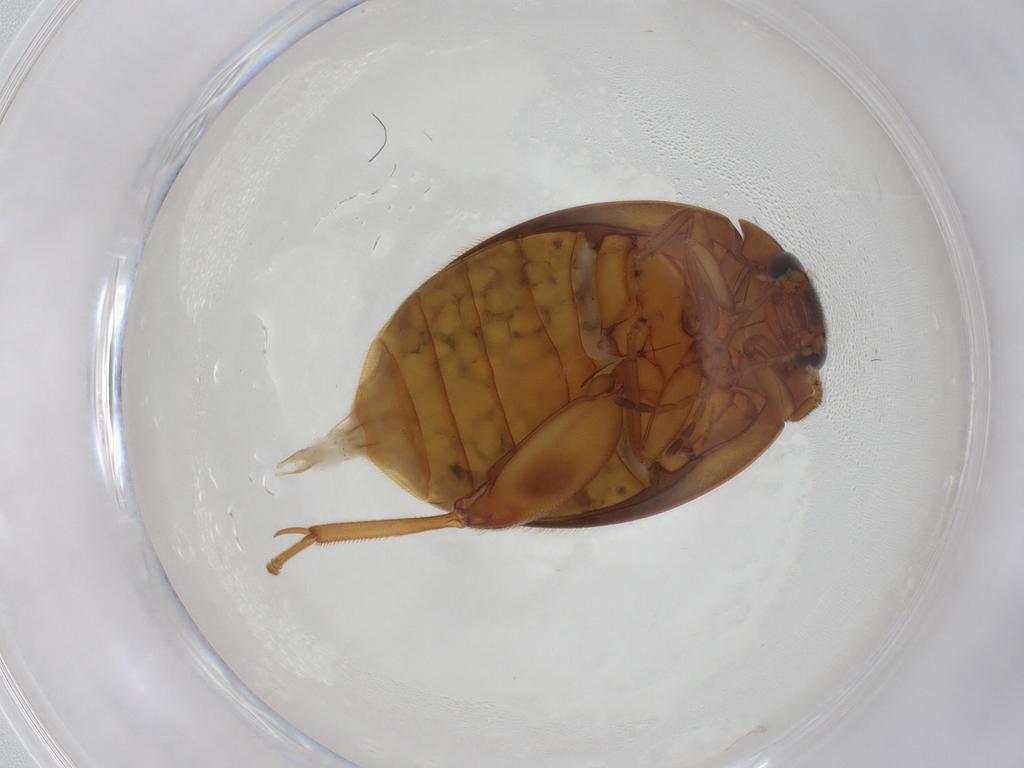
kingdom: Animalia
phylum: Arthropoda
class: Insecta
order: Coleoptera
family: Scirtidae
